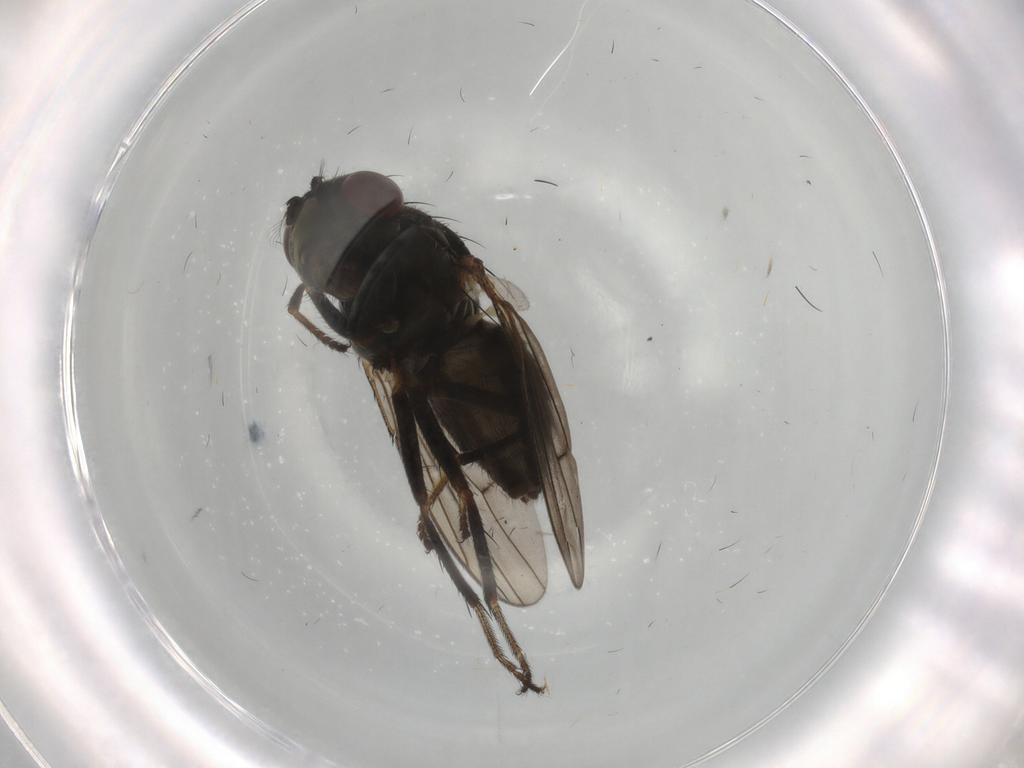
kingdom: Animalia
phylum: Arthropoda
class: Insecta
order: Diptera
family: Ephydridae
